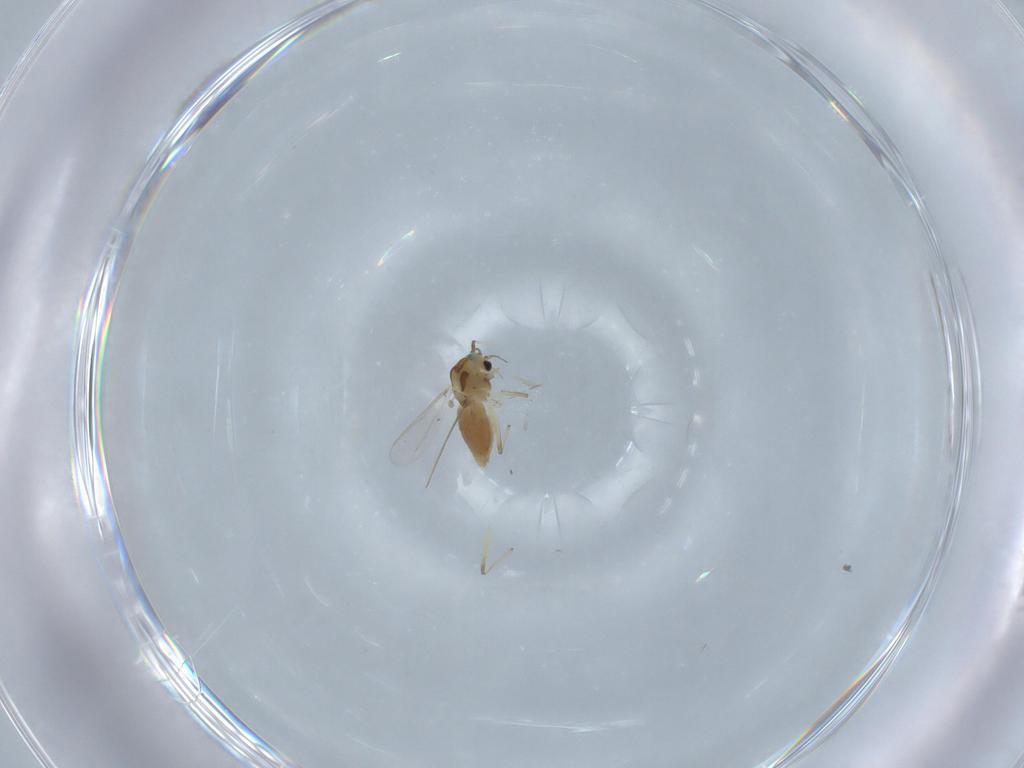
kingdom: Animalia
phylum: Arthropoda
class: Insecta
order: Diptera
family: Chironomidae
